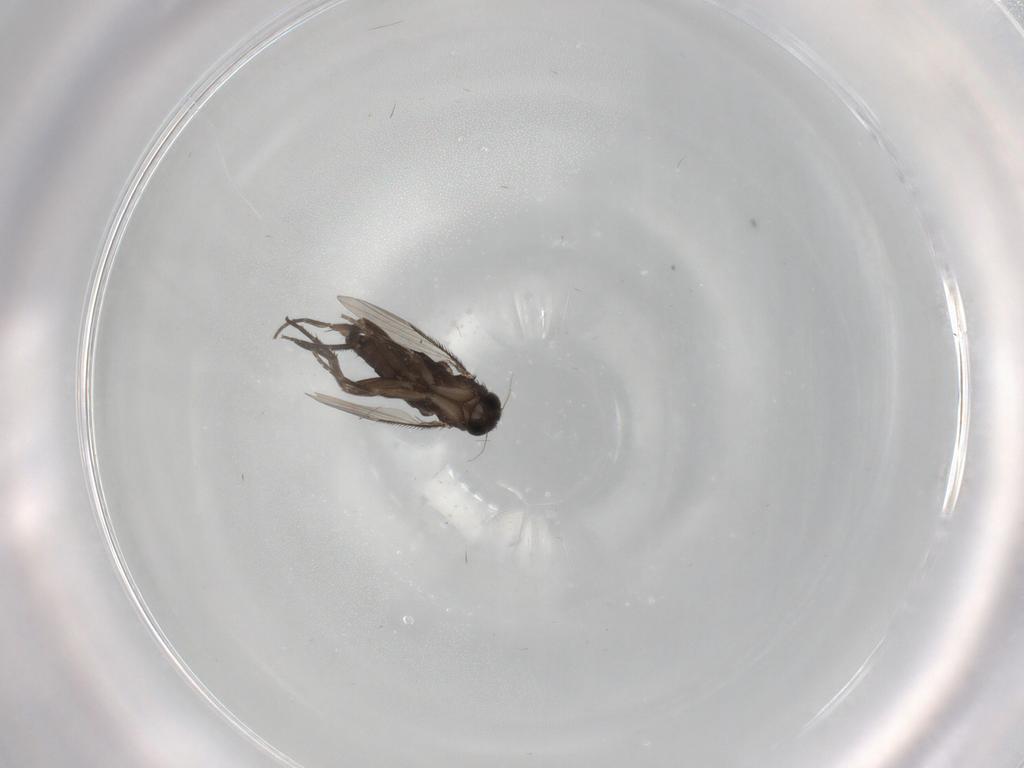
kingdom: Animalia
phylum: Arthropoda
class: Insecta
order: Diptera
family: Phoridae
